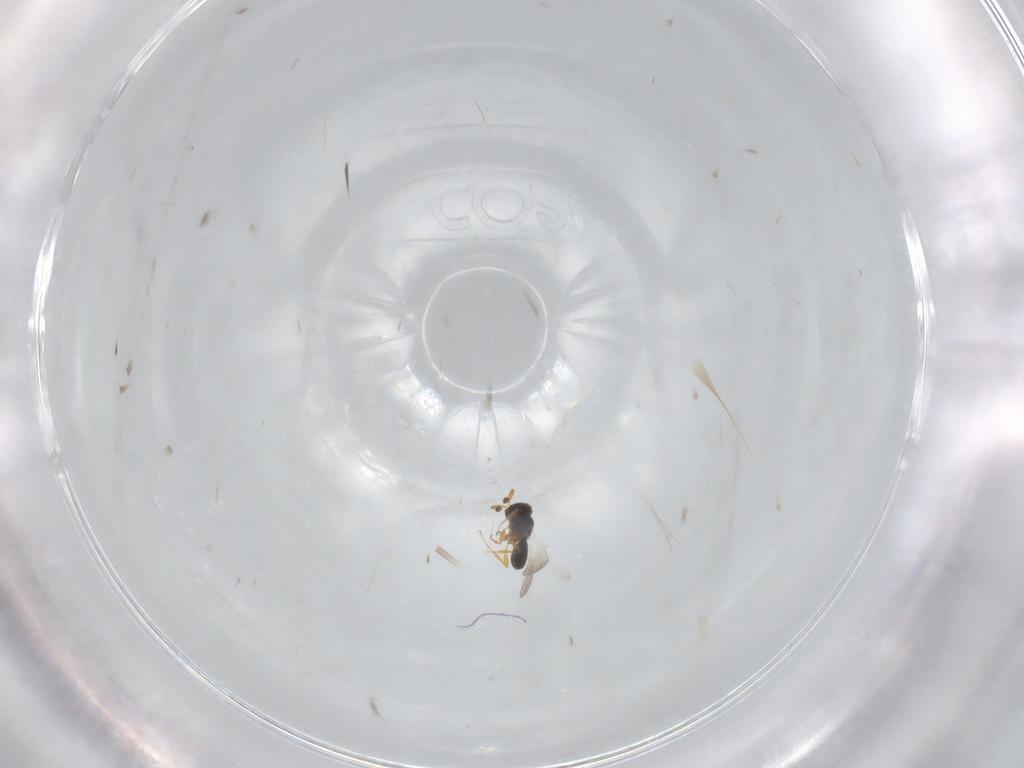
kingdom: Animalia
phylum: Arthropoda
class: Insecta
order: Hymenoptera
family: Platygastridae
